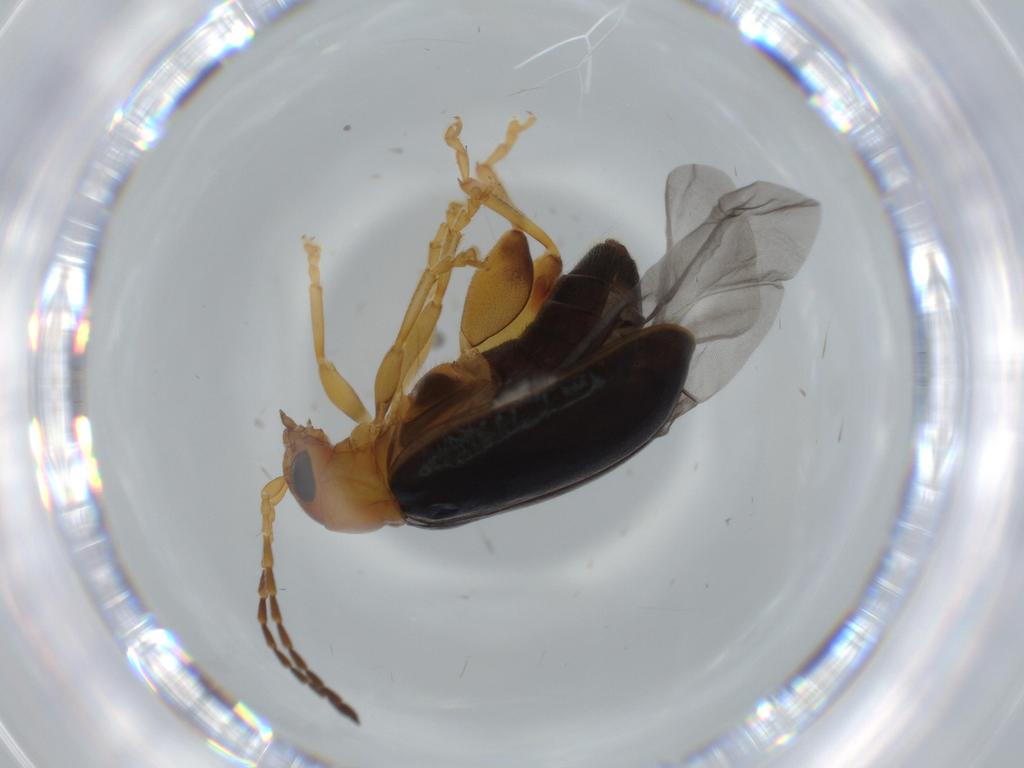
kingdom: Animalia
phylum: Arthropoda
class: Insecta
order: Coleoptera
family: Chrysomelidae
